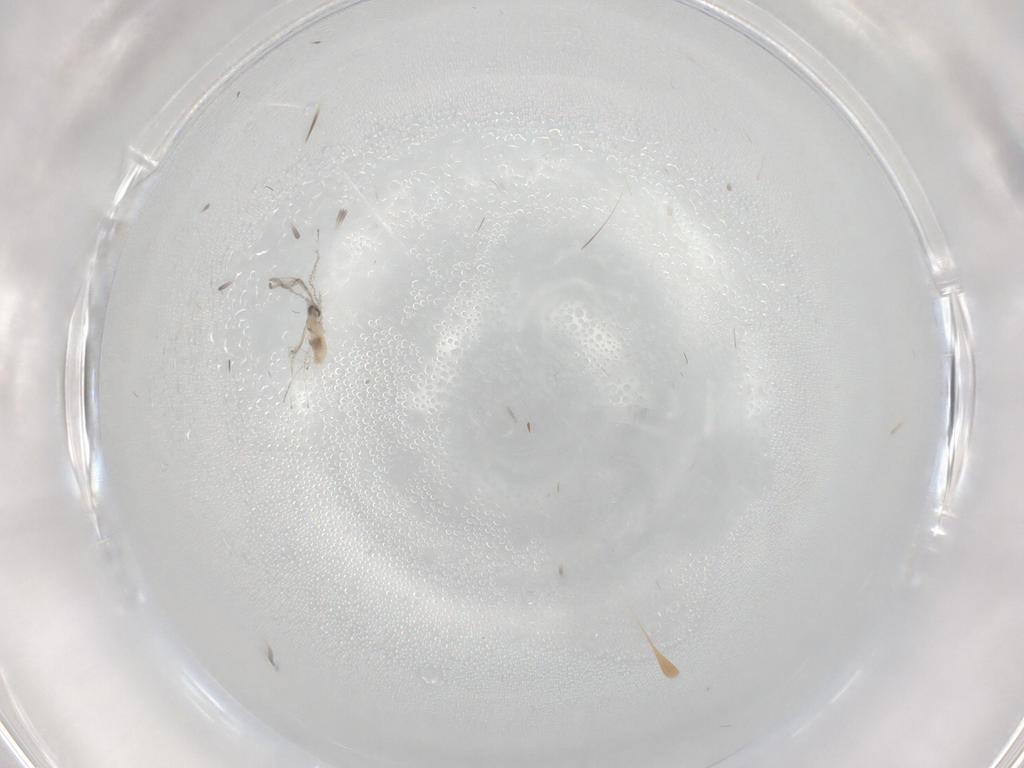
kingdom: Animalia
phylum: Arthropoda
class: Insecta
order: Diptera
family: Cecidomyiidae
